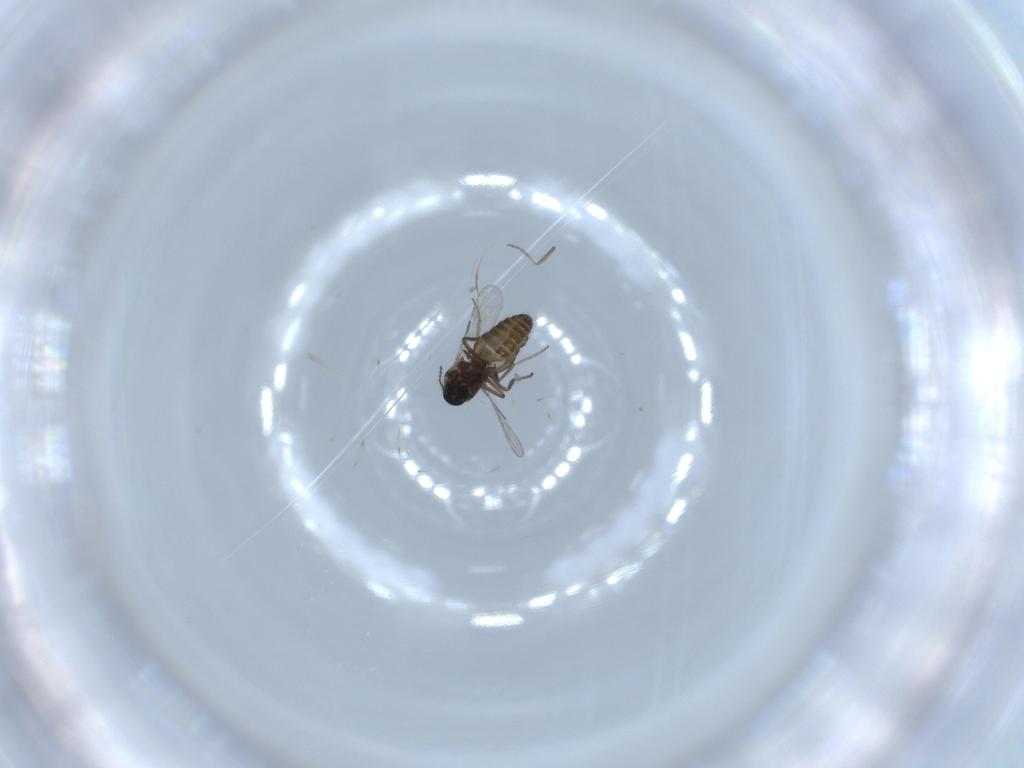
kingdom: Animalia
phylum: Arthropoda
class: Insecta
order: Diptera
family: Ceratopogonidae
